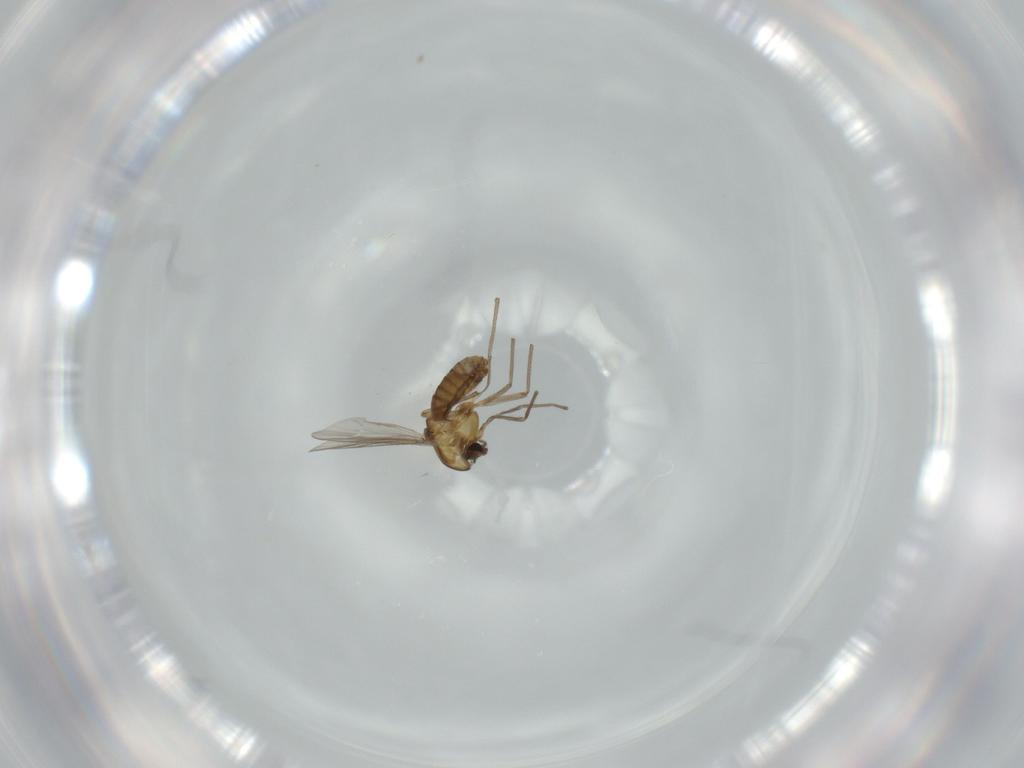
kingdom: Animalia
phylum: Arthropoda
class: Insecta
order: Diptera
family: Chironomidae
